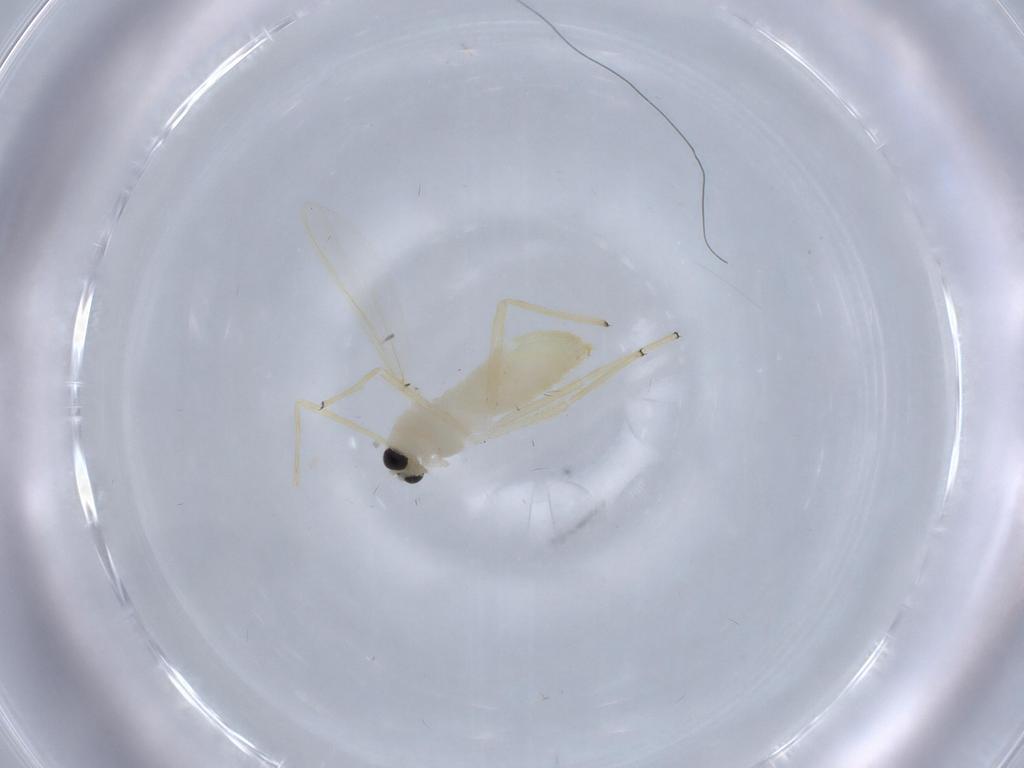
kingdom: Animalia
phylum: Arthropoda
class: Insecta
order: Diptera
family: Chironomidae
